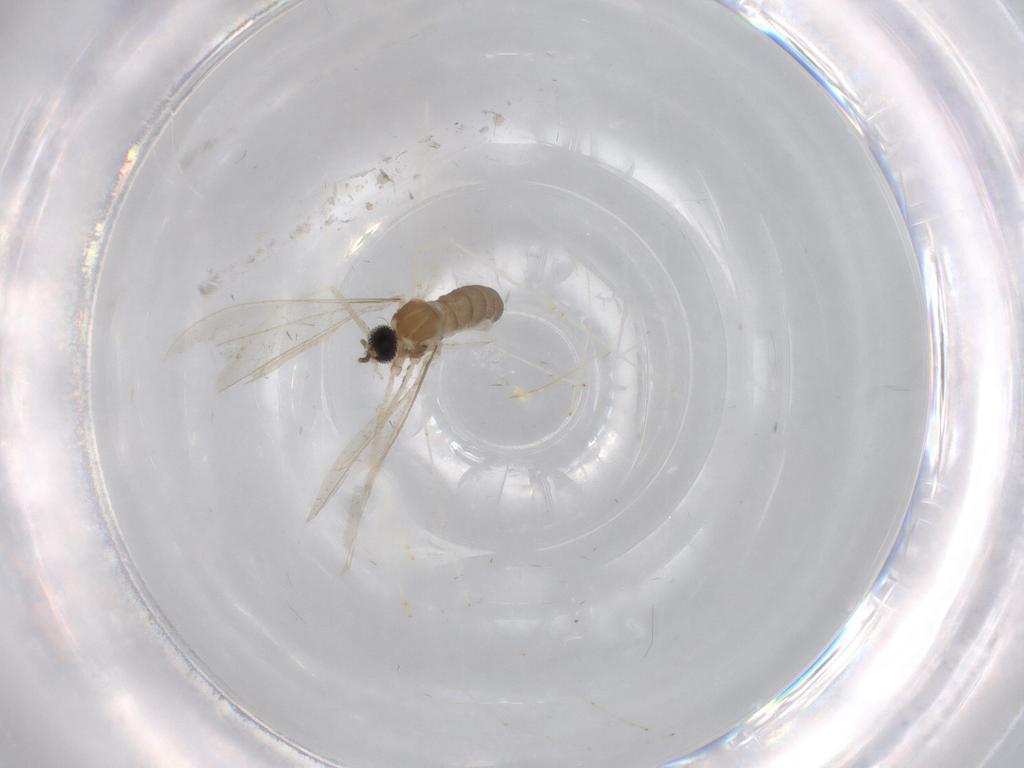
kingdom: Animalia
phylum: Arthropoda
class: Insecta
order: Diptera
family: Cecidomyiidae
